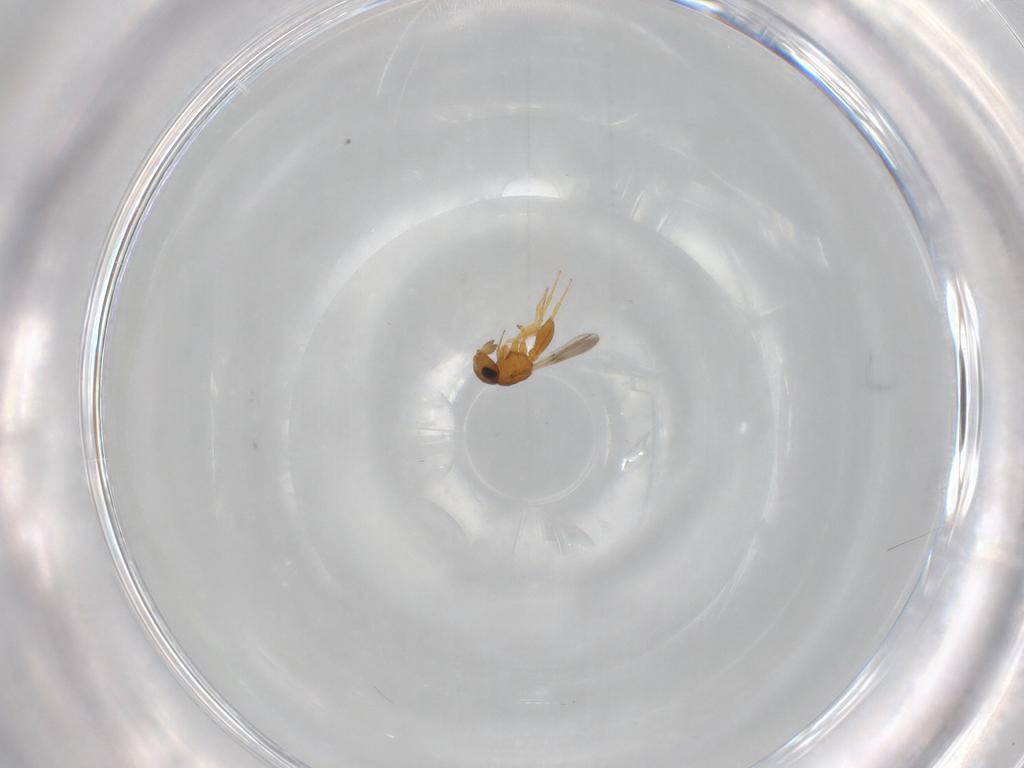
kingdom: Animalia
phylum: Arthropoda
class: Insecta
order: Hymenoptera
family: Scelionidae
